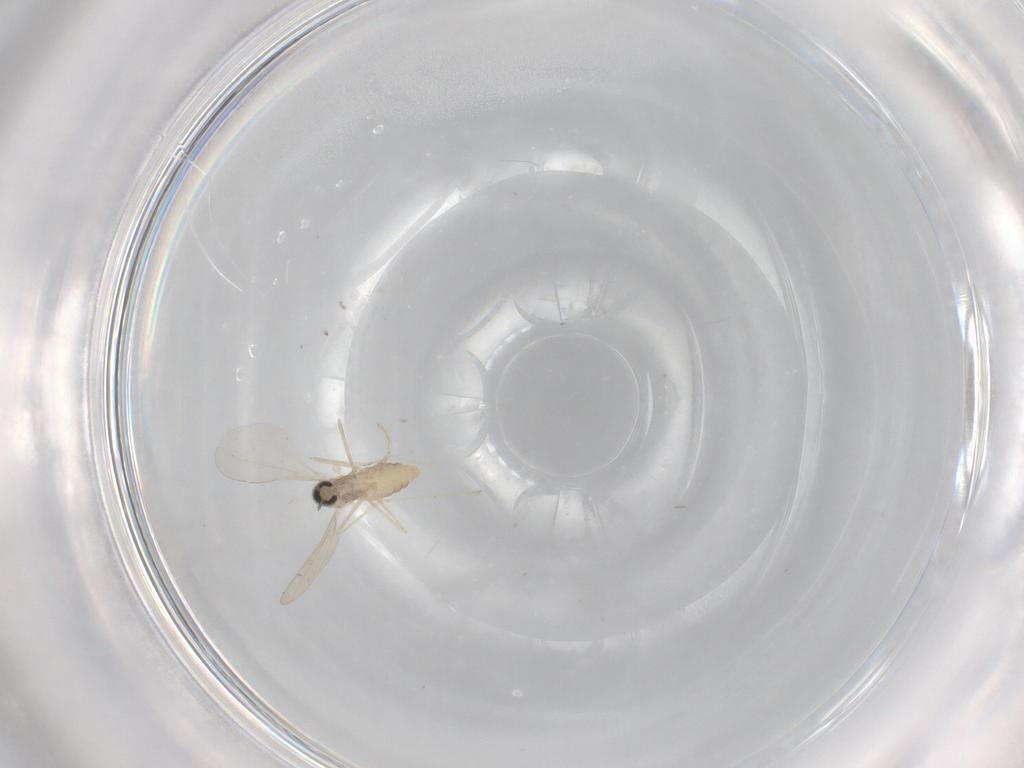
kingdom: Animalia
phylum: Arthropoda
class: Insecta
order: Diptera
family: Cecidomyiidae
